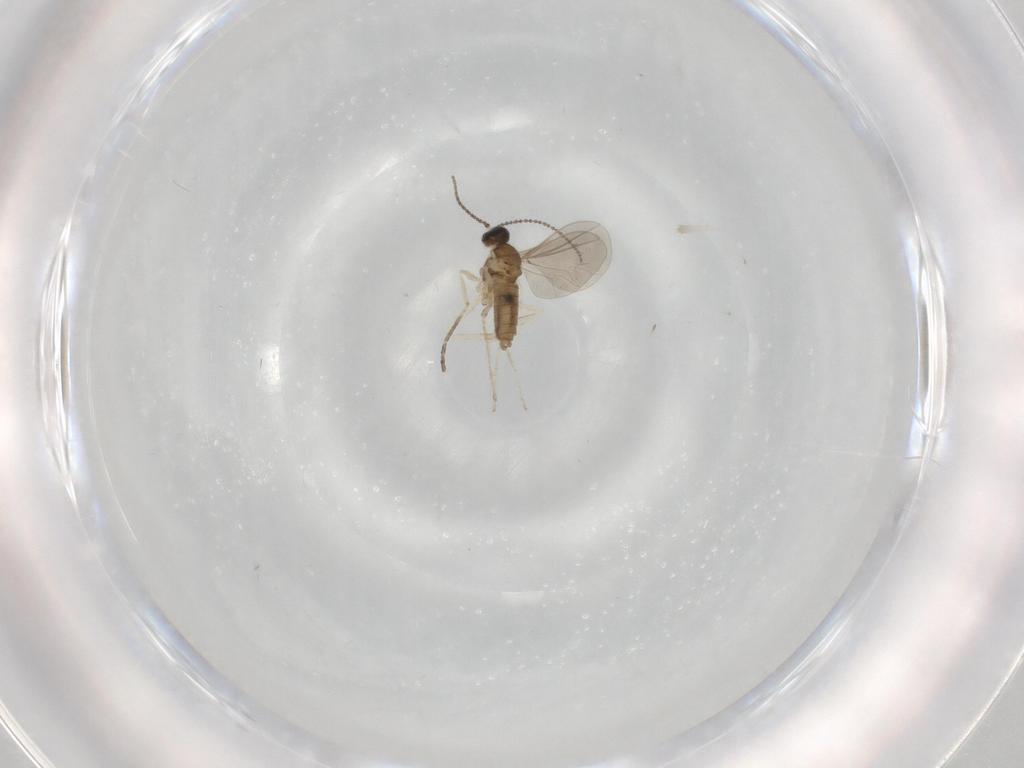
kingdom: Animalia
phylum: Arthropoda
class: Insecta
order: Diptera
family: Cecidomyiidae
